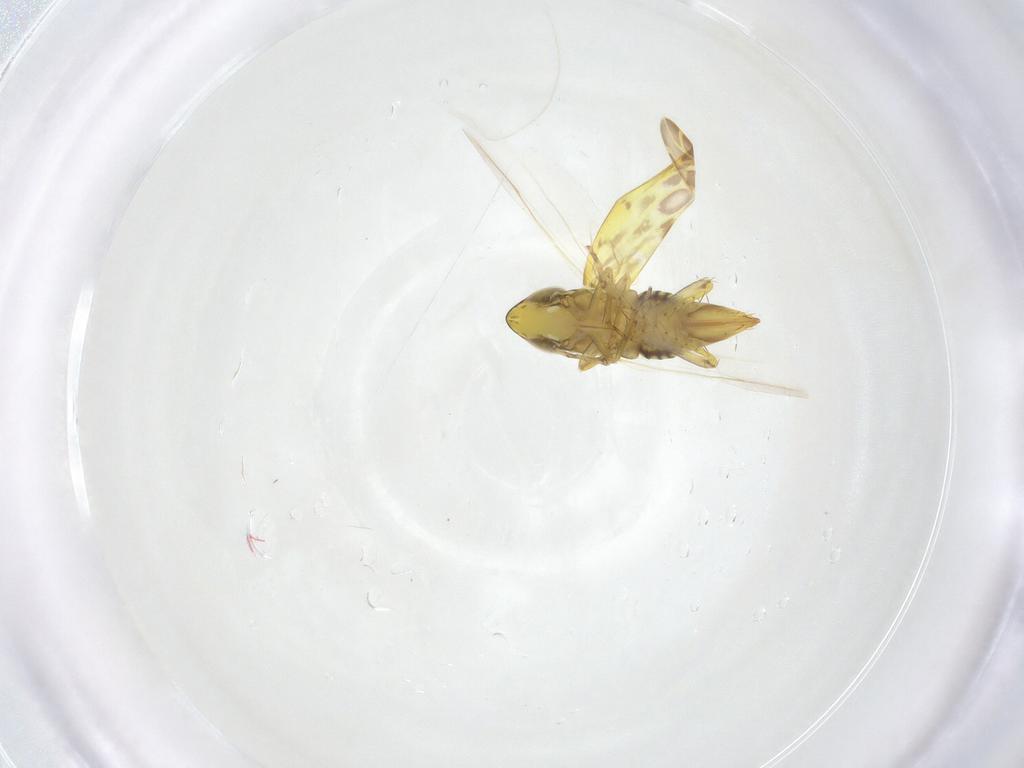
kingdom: Animalia
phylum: Arthropoda
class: Insecta
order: Hemiptera
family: Cicadellidae
